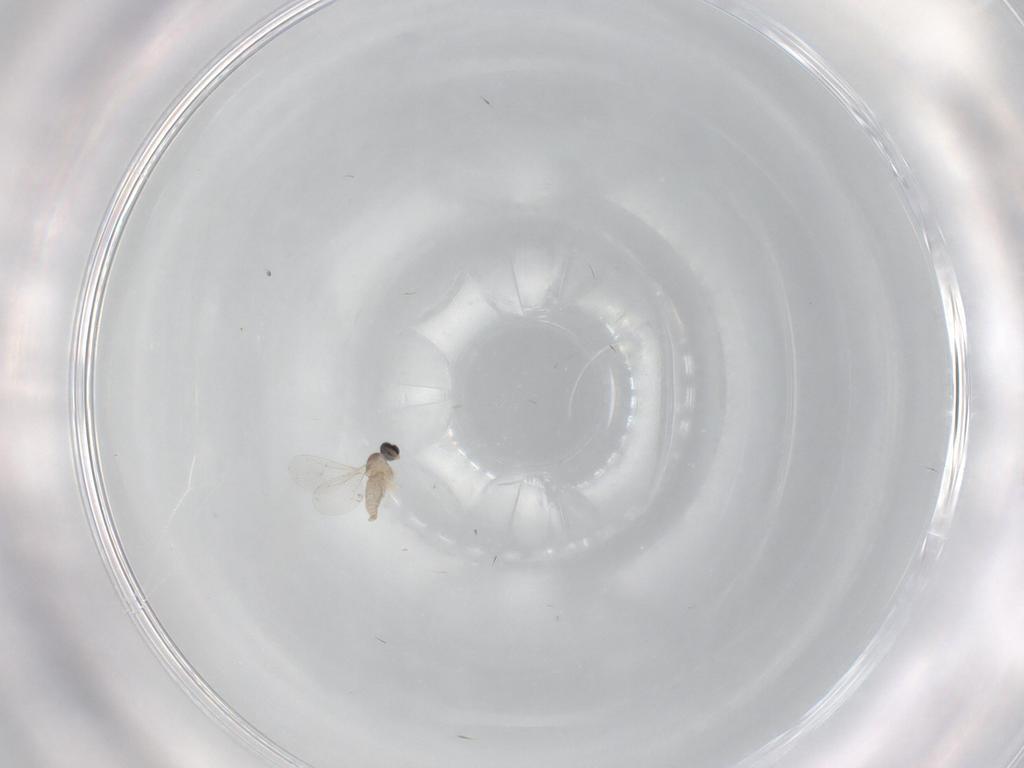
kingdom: Animalia
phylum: Arthropoda
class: Insecta
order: Diptera
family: Cecidomyiidae
